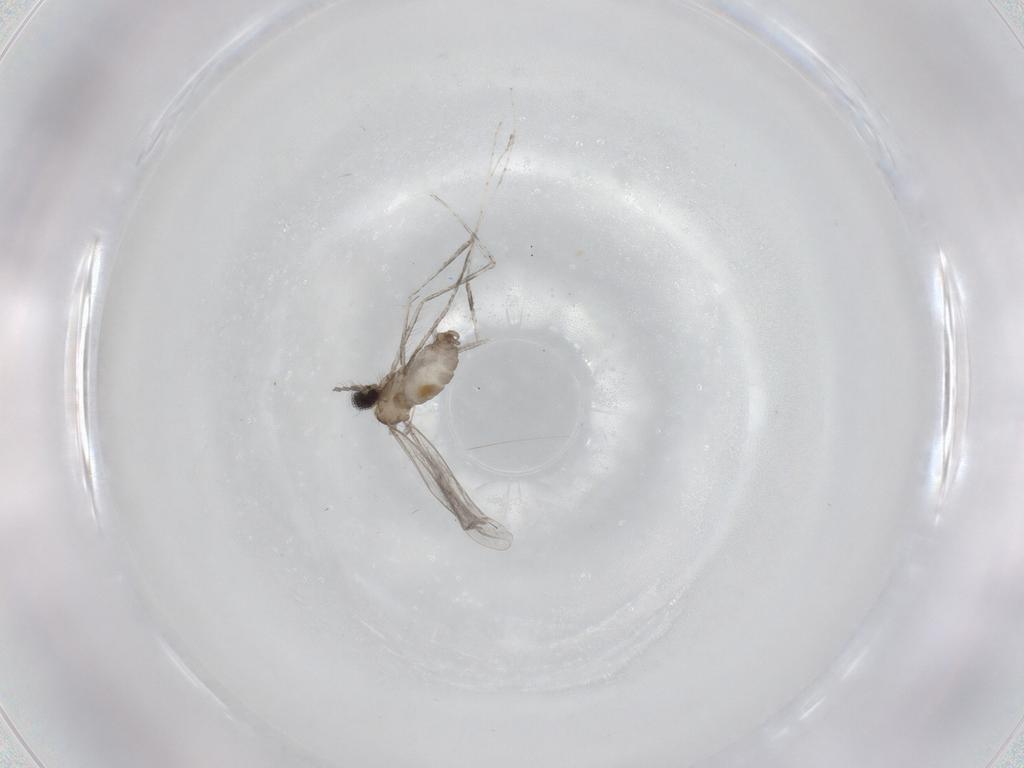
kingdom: Animalia
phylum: Arthropoda
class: Insecta
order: Diptera
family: Cecidomyiidae
